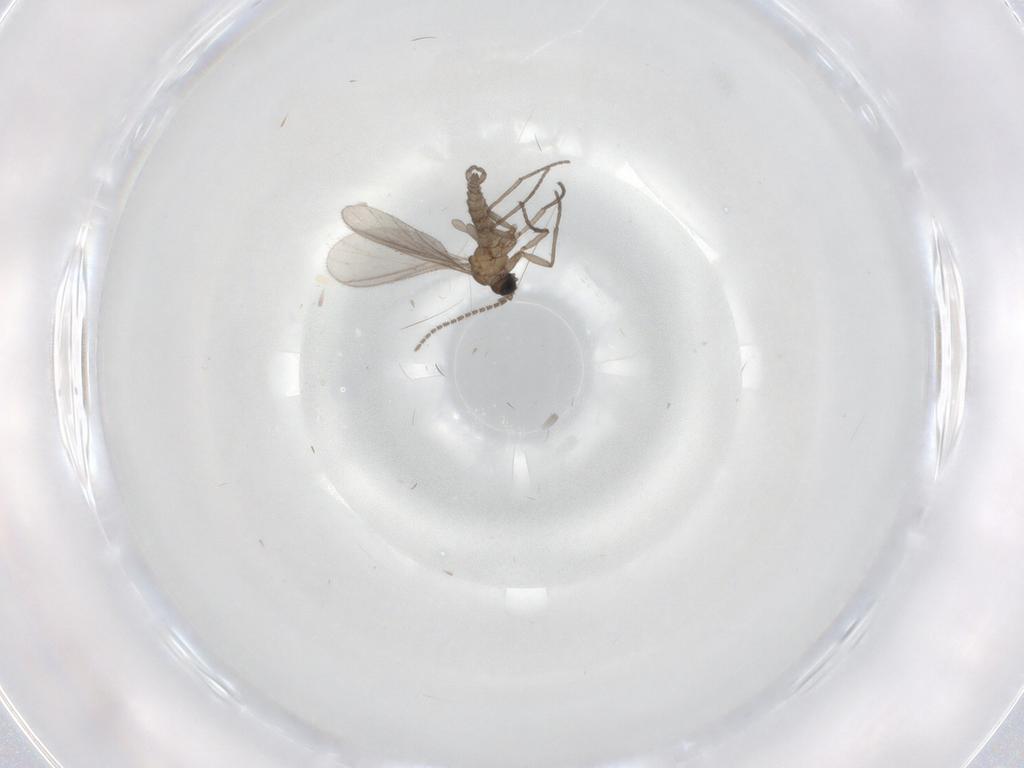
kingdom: Animalia
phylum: Arthropoda
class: Insecta
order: Diptera
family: Sciaridae
